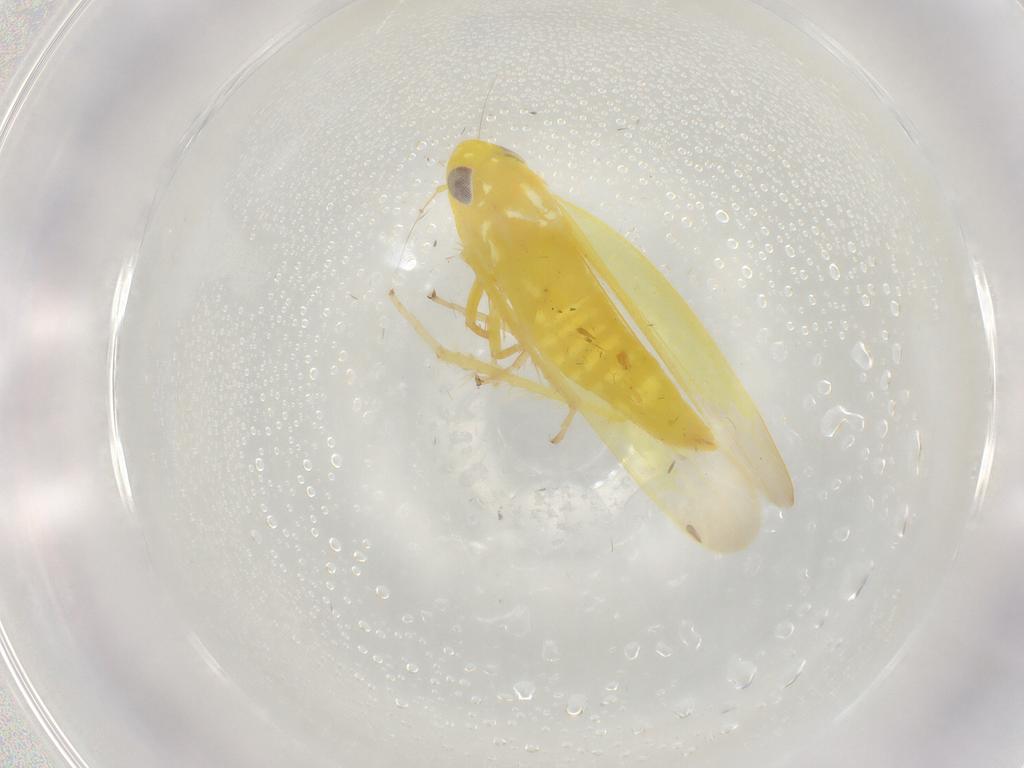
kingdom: Animalia
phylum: Arthropoda
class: Insecta
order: Hemiptera
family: Cicadellidae
